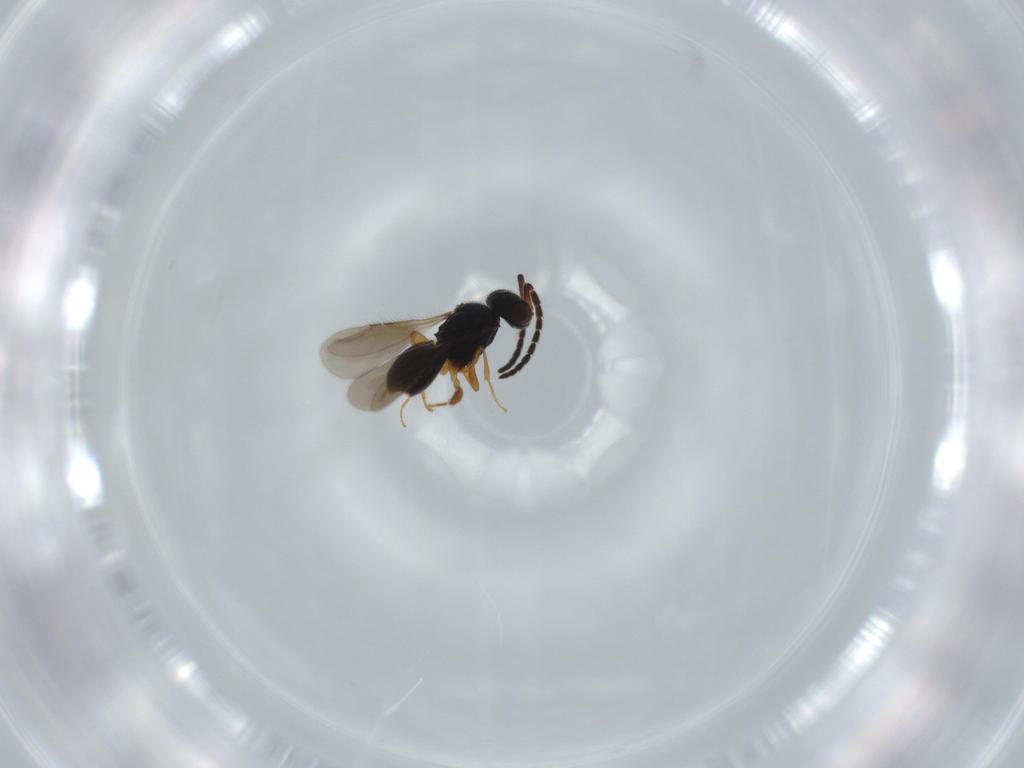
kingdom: Animalia
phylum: Arthropoda
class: Insecta
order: Hymenoptera
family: Ceraphronidae
